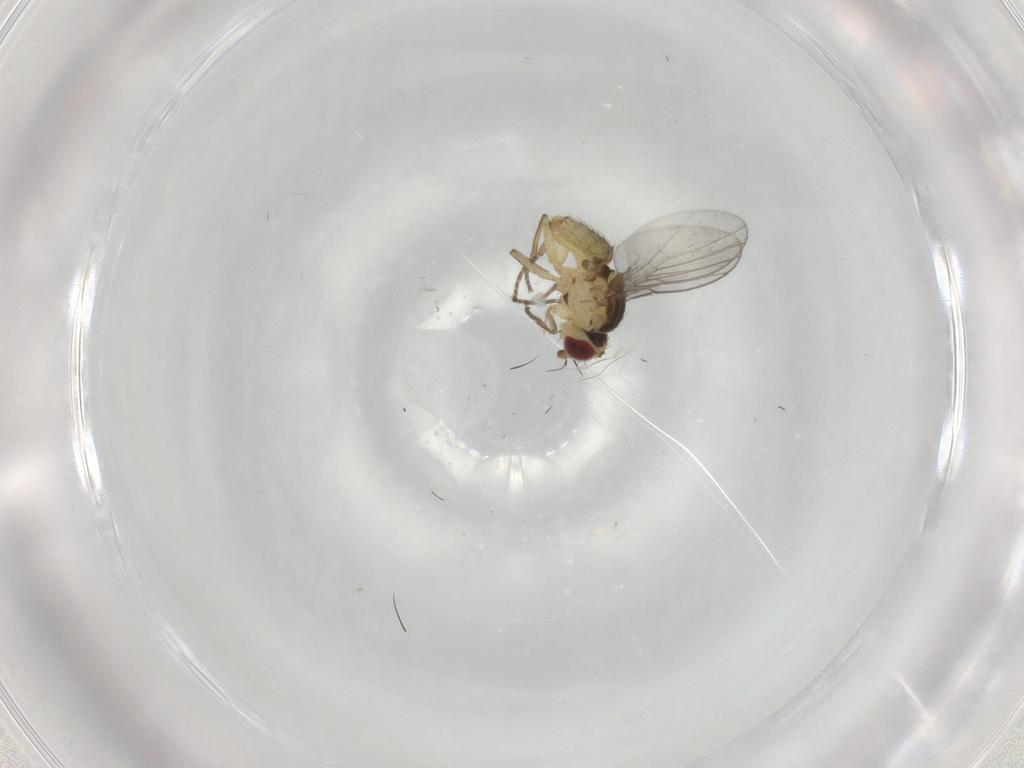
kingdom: Animalia
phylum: Arthropoda
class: Insecta
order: Diptera
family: Agromyzidae
